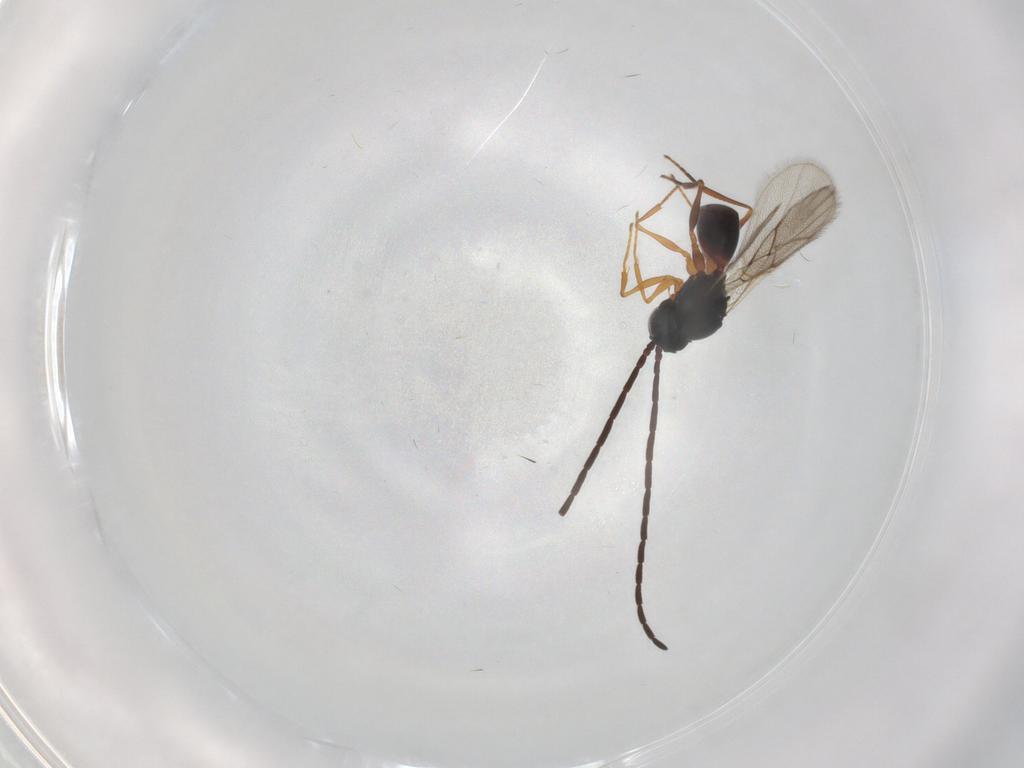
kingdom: Animalia
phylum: Arthropoda
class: Insecta
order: Hymenoptera
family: Figitidae
